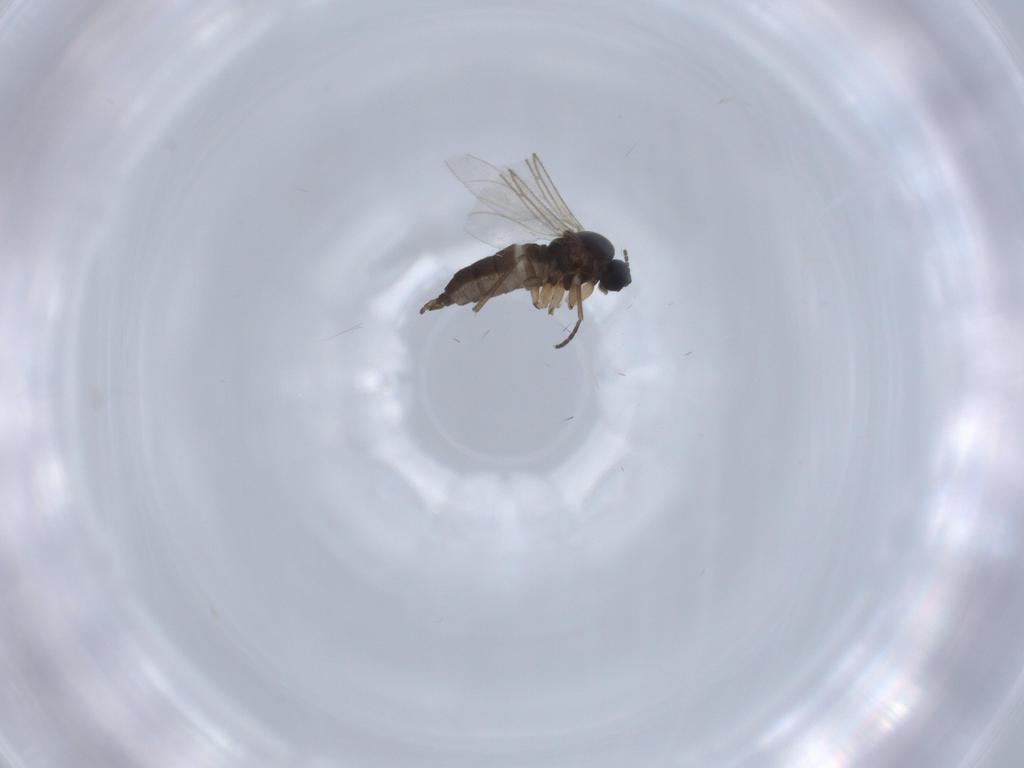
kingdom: Animalia
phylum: Arthropoda
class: Insecta
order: Diptera
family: Sciaridae
